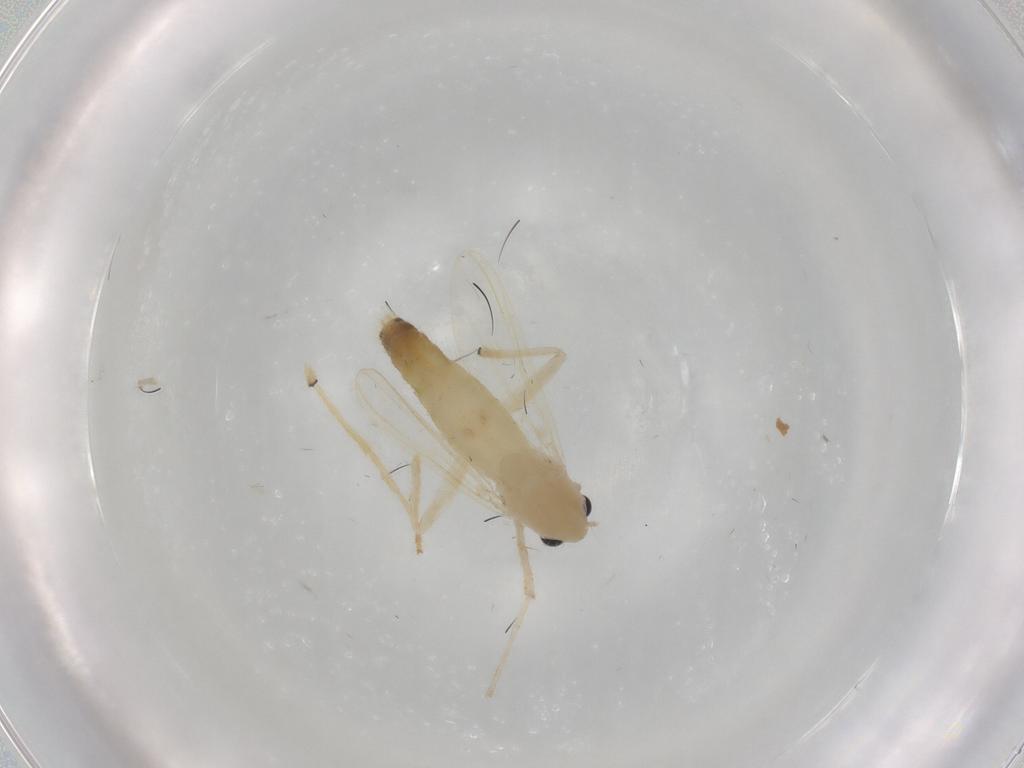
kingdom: Animalia
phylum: Arthropoda
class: Insecta
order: Diptera
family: Chironomidae
